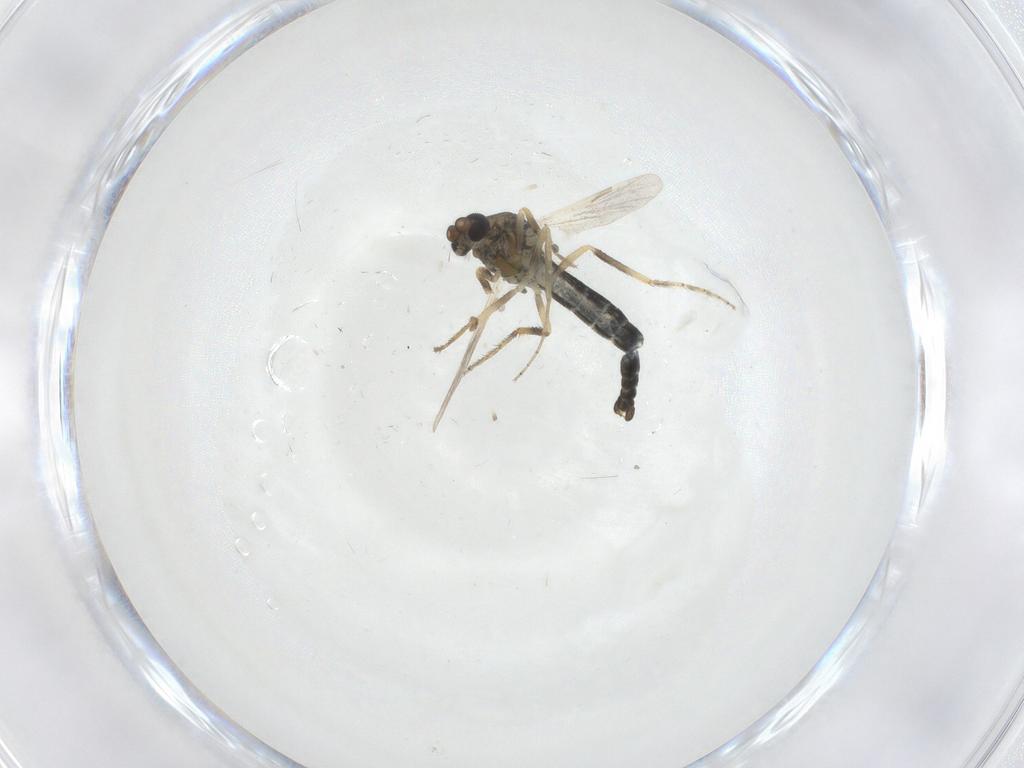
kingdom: Animalia
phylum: Arthropoda
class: Insecta
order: Diptera
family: Ceratopogonidae
